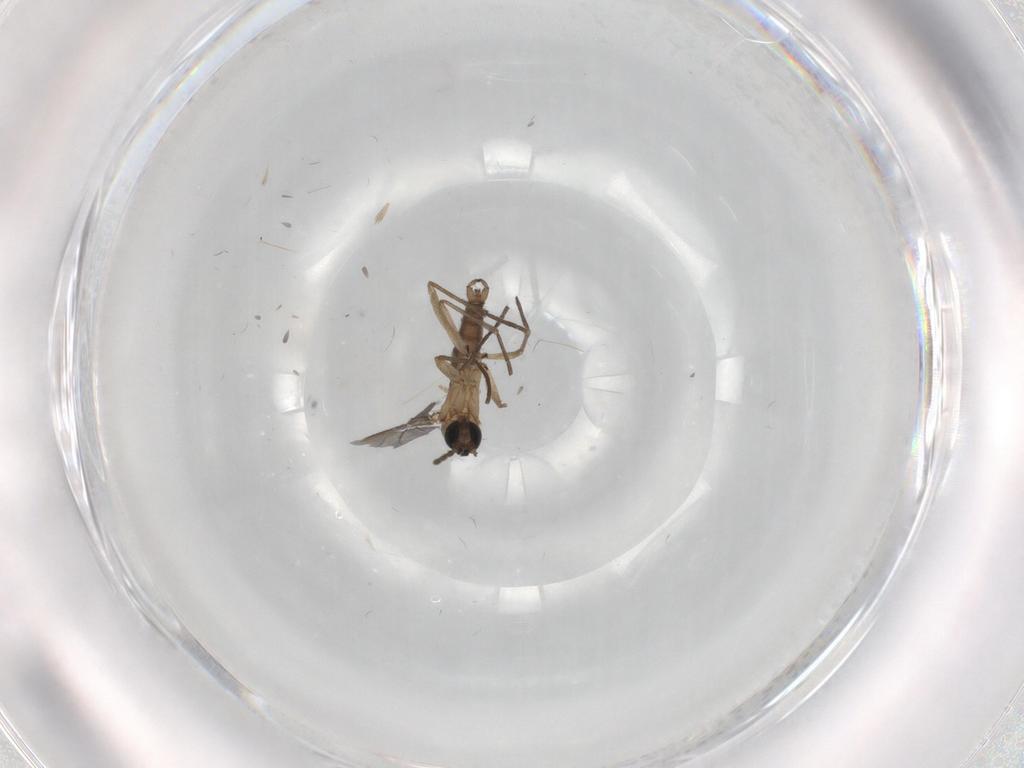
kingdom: Animalia
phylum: Arthropoda
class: Insecta
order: Diptera
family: Sciaridae
